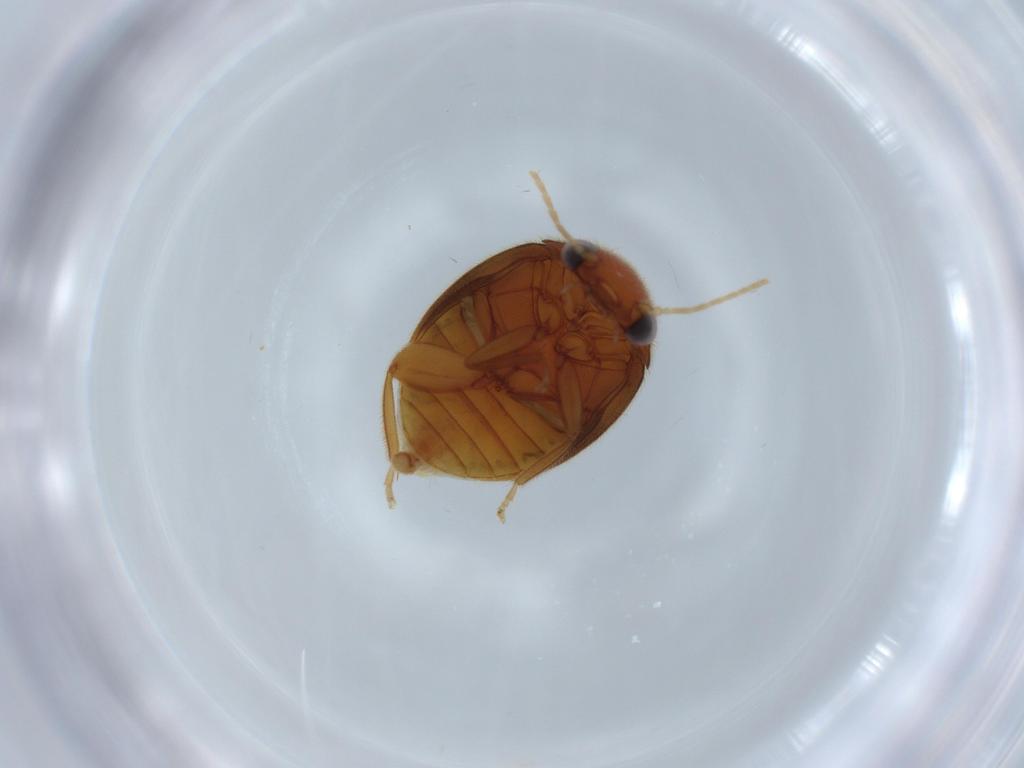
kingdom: Animalia
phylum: Arthropoda
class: Insecta
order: Coleoptera
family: Scirtidae
